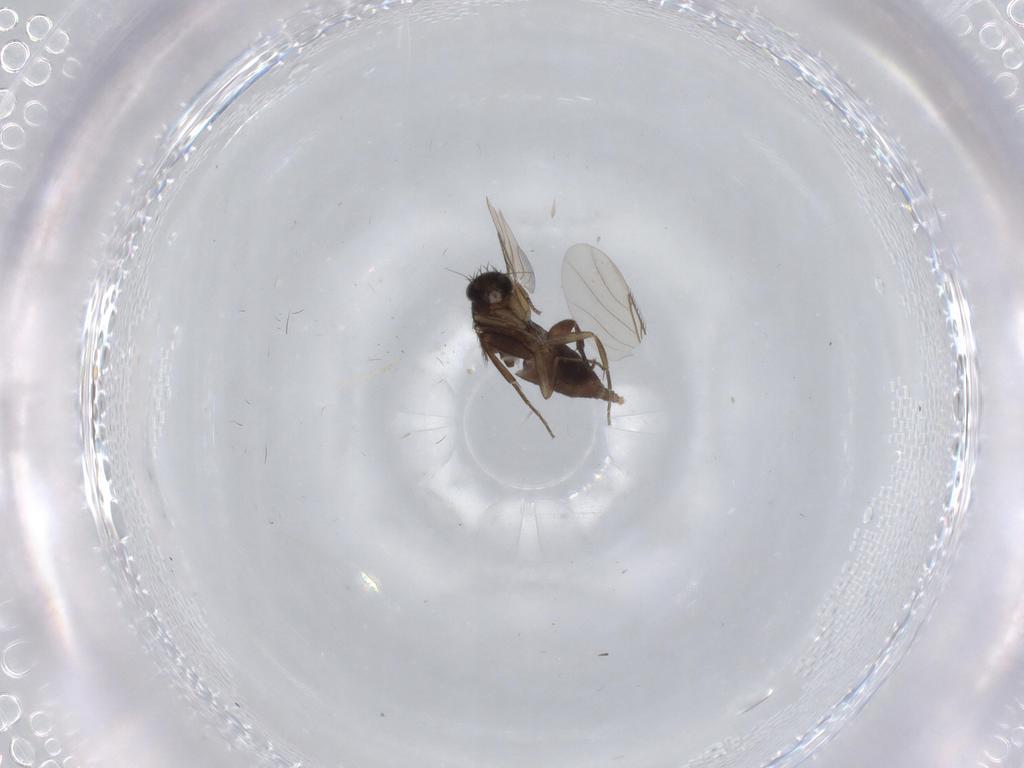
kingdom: Animalia
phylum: Arthropoda
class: Insecta
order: Diptera
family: Phoridae
